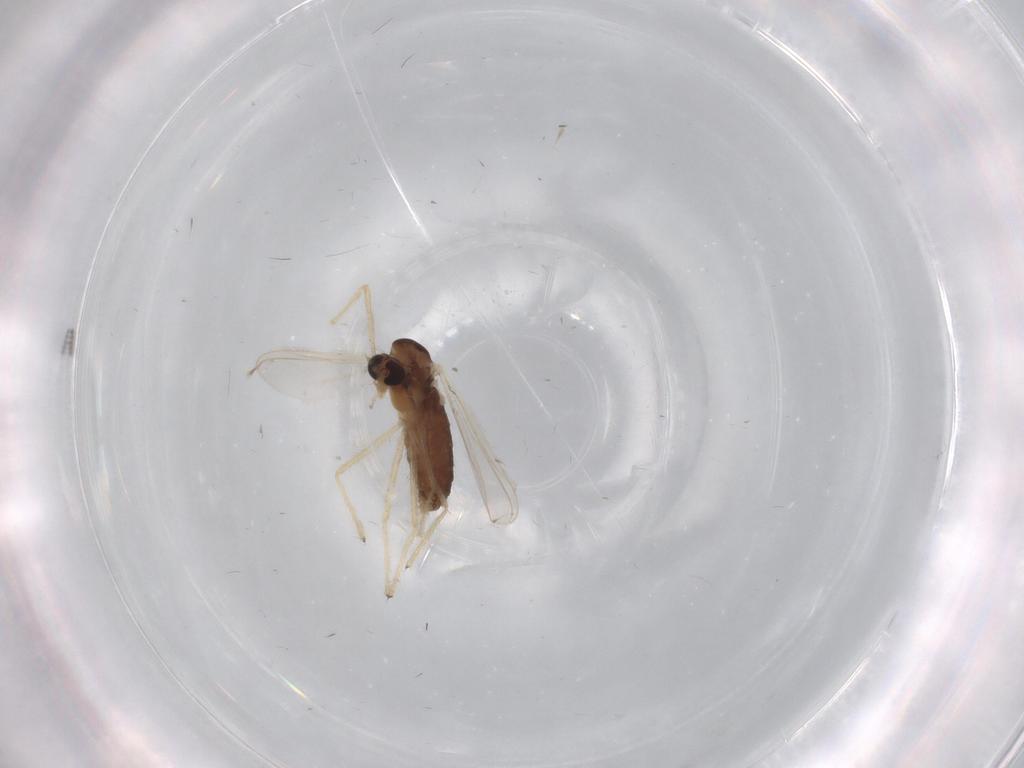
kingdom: Animalia
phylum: Arthropoda
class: Insecta
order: Diptera
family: Chironomidae
